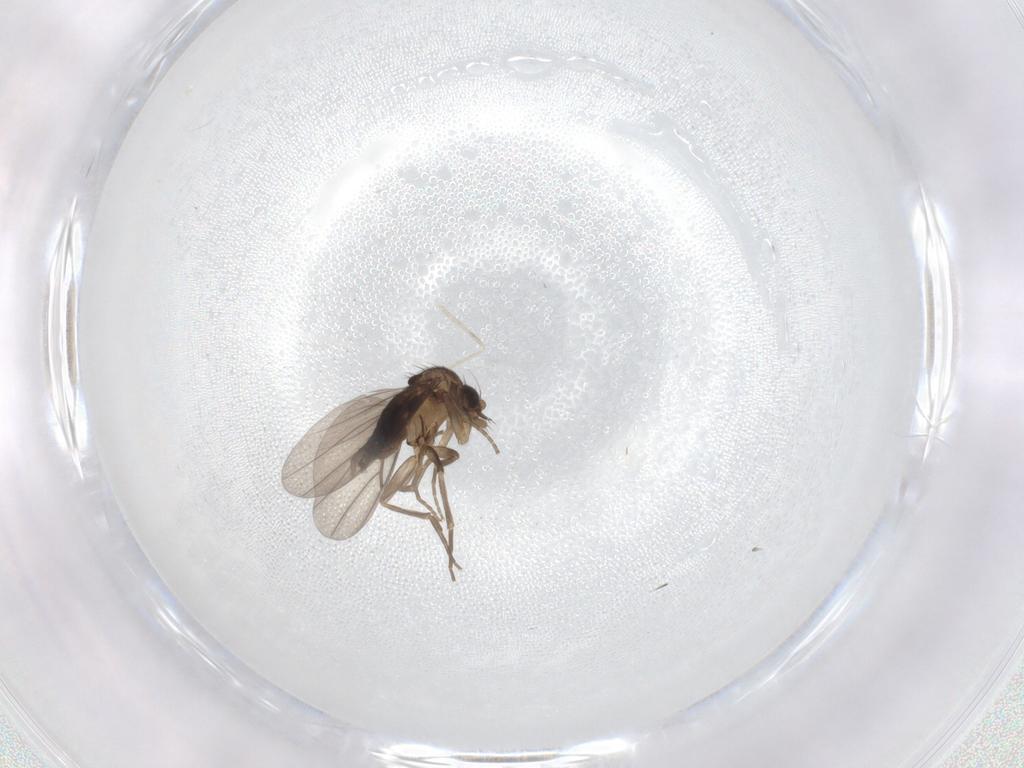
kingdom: Animalia
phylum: Arthropoda
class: Insecta
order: Diptera
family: Phoridae
